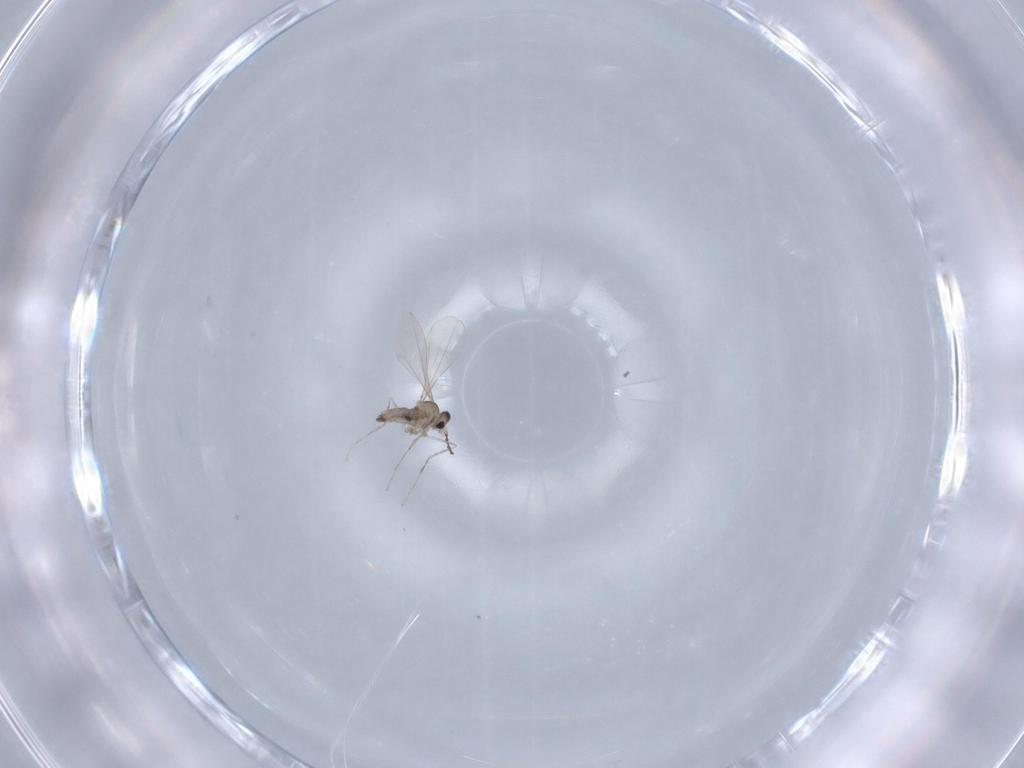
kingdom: Animalia
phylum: Arthropoda
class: Insecta
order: Diptera
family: Cecidomyiidae
